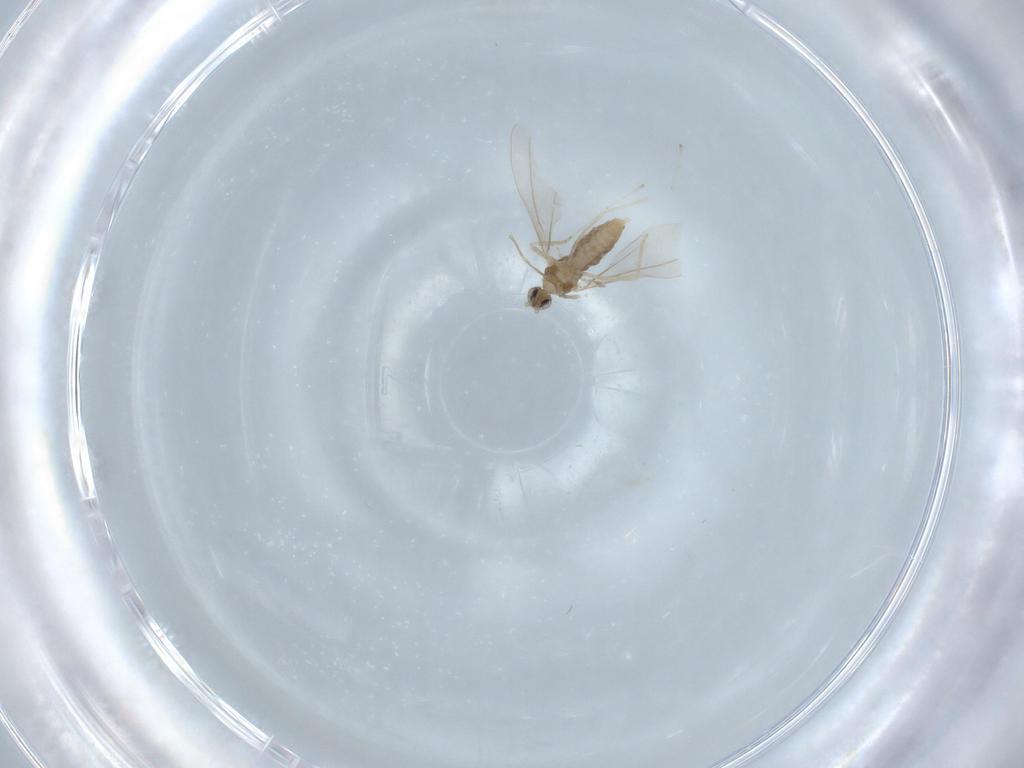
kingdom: Animalia
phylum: Arthropoda
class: Insecta
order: Diptera
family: Cecidomyiidae
